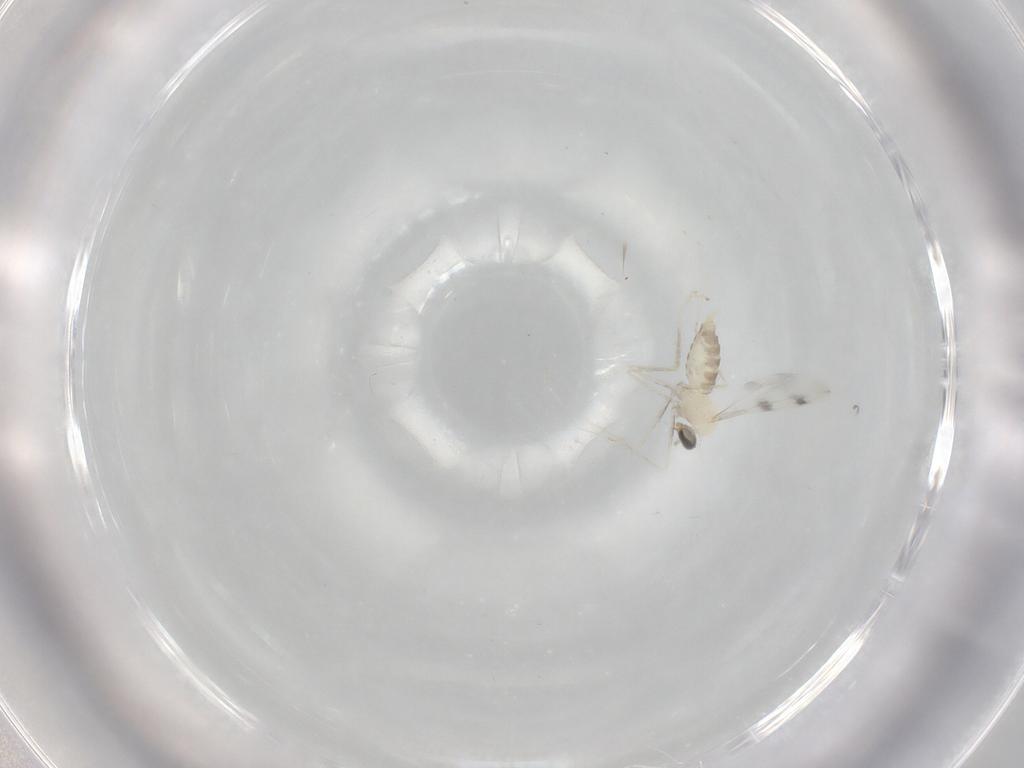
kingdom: Animalia
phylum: Arthropoda
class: Insecta
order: Diptera
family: Cecidomyiidae
